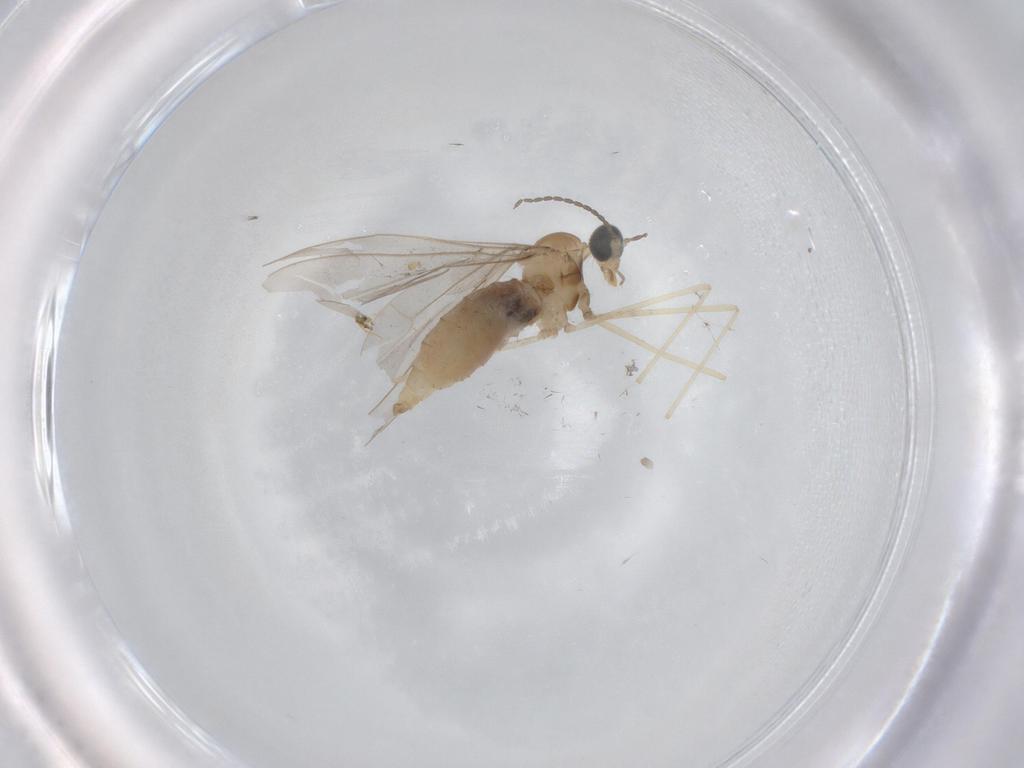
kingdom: Animalia
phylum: Arthropoda
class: Insecta
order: Diptera
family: Cecidomyiidae
